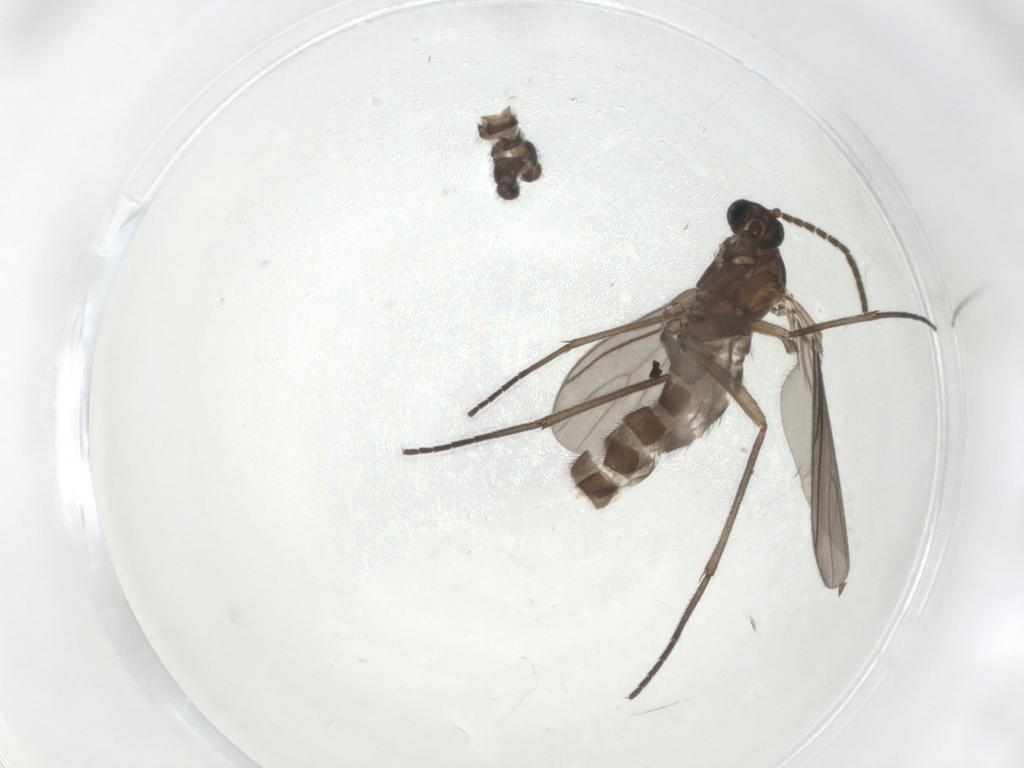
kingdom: Animalia
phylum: Arthropoda
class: Insecta
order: Diptera
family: Sciaridae
